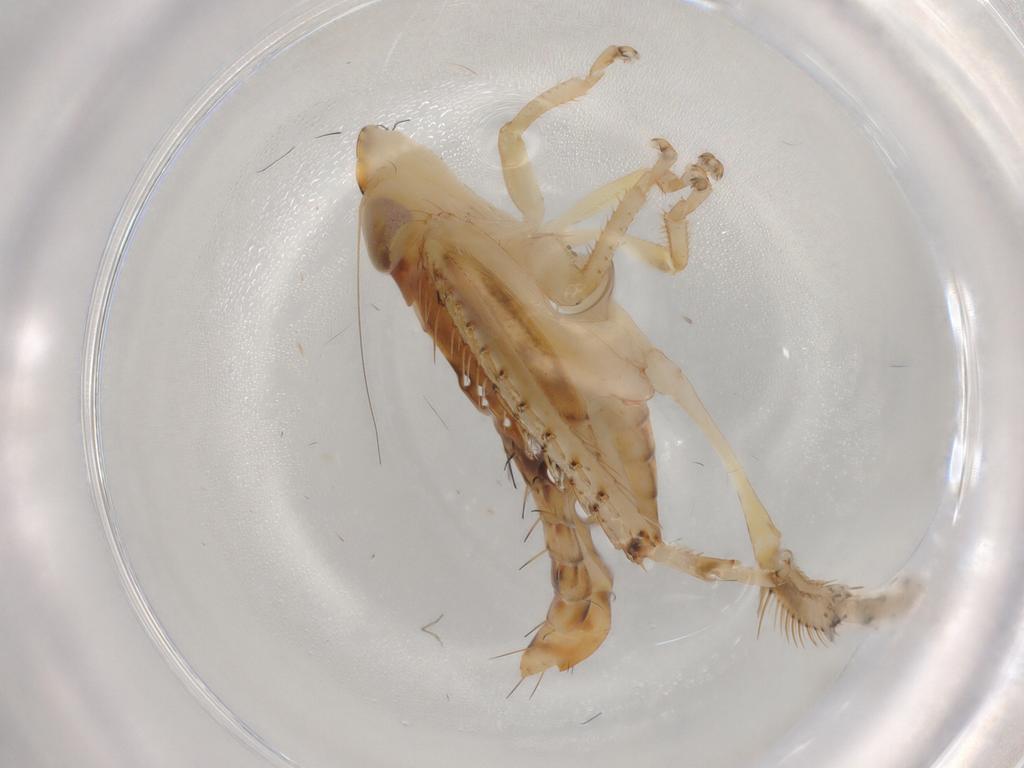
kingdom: Animalia
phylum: Arthropoda
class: Insecta
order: Hemiptera
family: Cicadellidae
